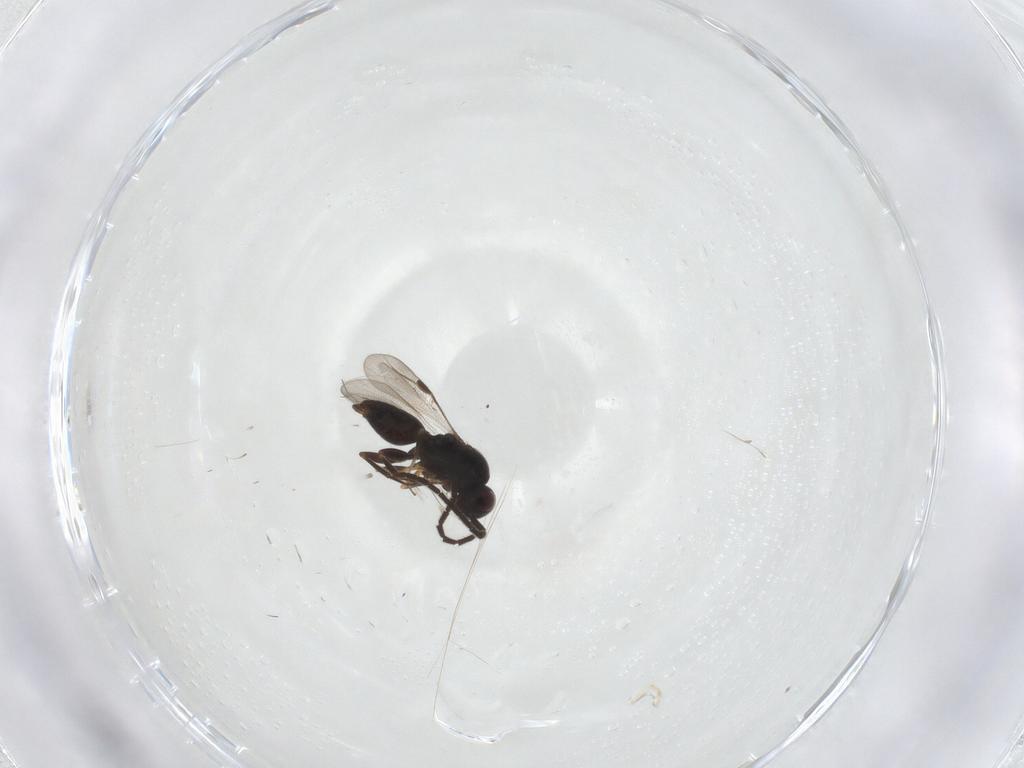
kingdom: Animalia
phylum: Arthropoda
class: Insecta
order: Hymenoptera
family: Megaspilidae
